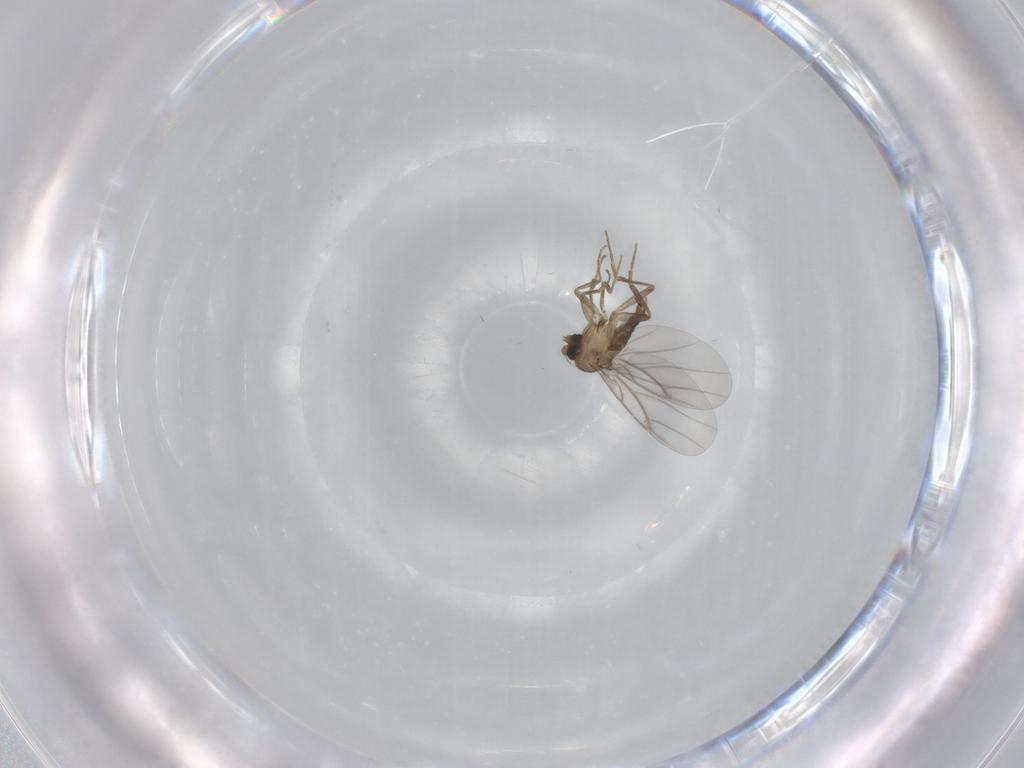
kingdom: Animalia
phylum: Arthropoda
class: Insecta
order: Diptera
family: Cecidomyiidae
